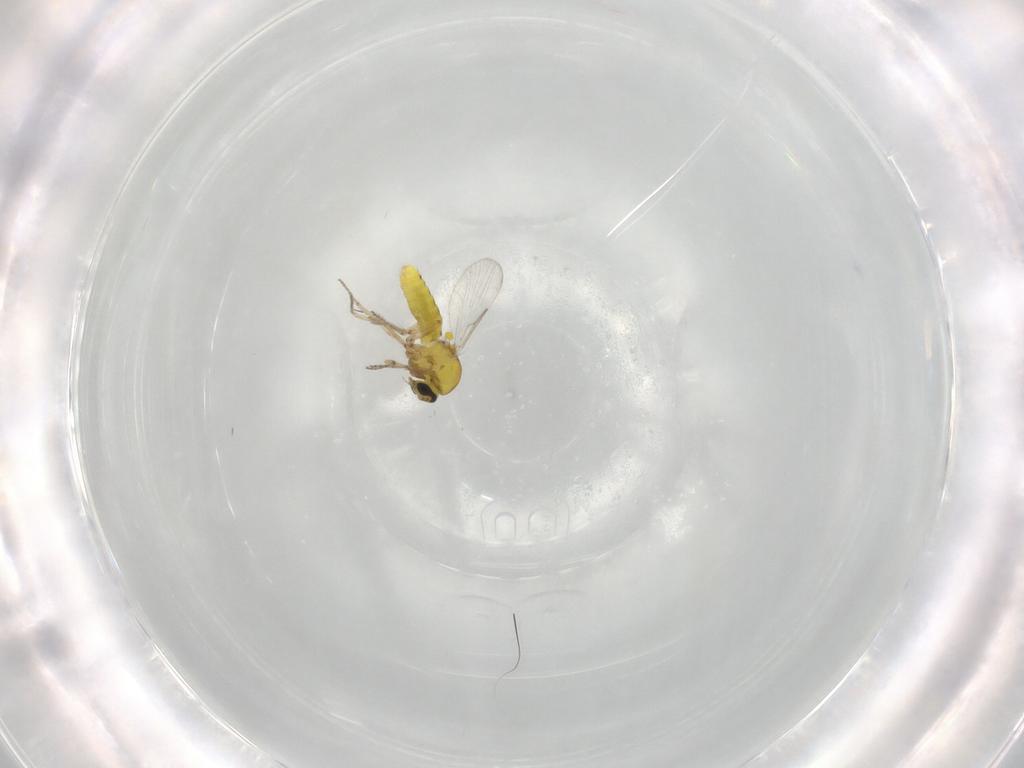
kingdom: Animalia
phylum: Arthropoda
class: Insecta
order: Diptera
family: Ceratopogonidae
